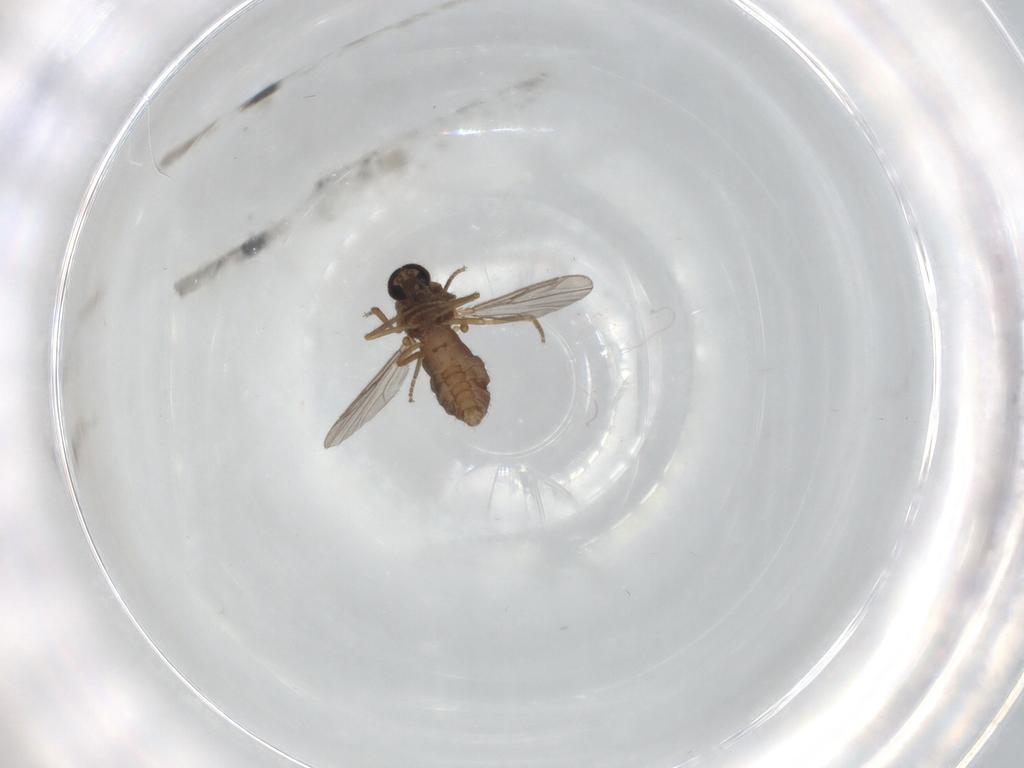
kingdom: Animalia
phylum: Arthropoda
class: Insecta
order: Diptera
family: Ceratopogonidae
